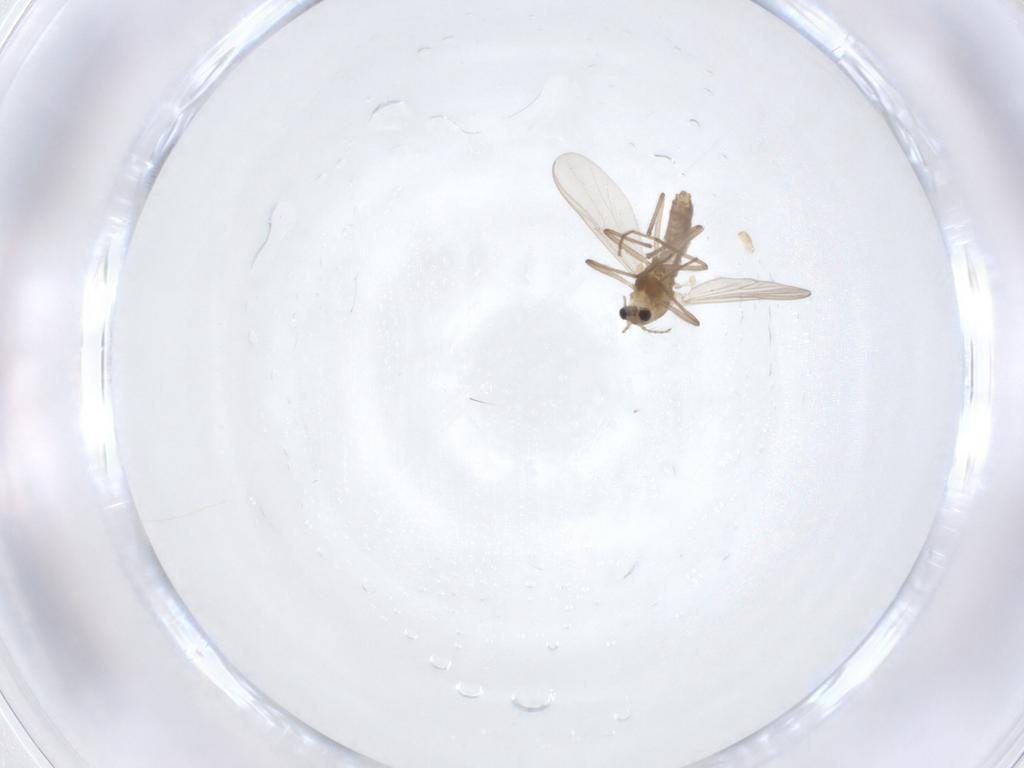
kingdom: Animalia
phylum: Arthropoda
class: Insecta
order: Diptera
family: Chironomidae
